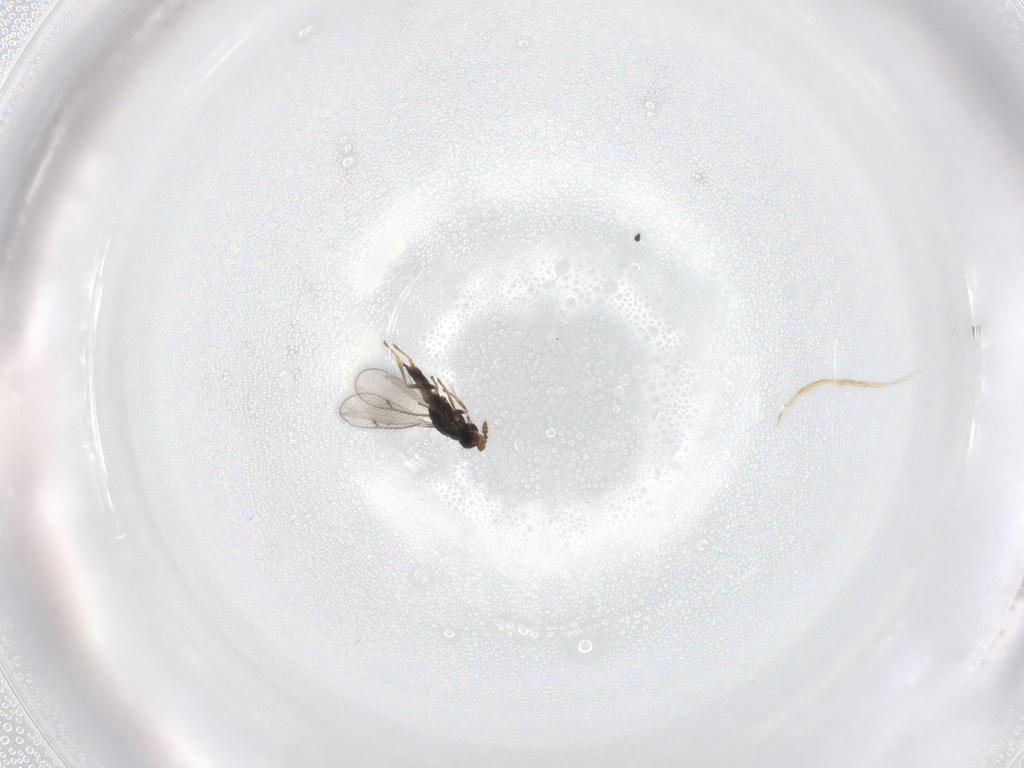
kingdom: Animalia
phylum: Arthropoda
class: Insecta
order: Hymenoptera
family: Eulophidae
